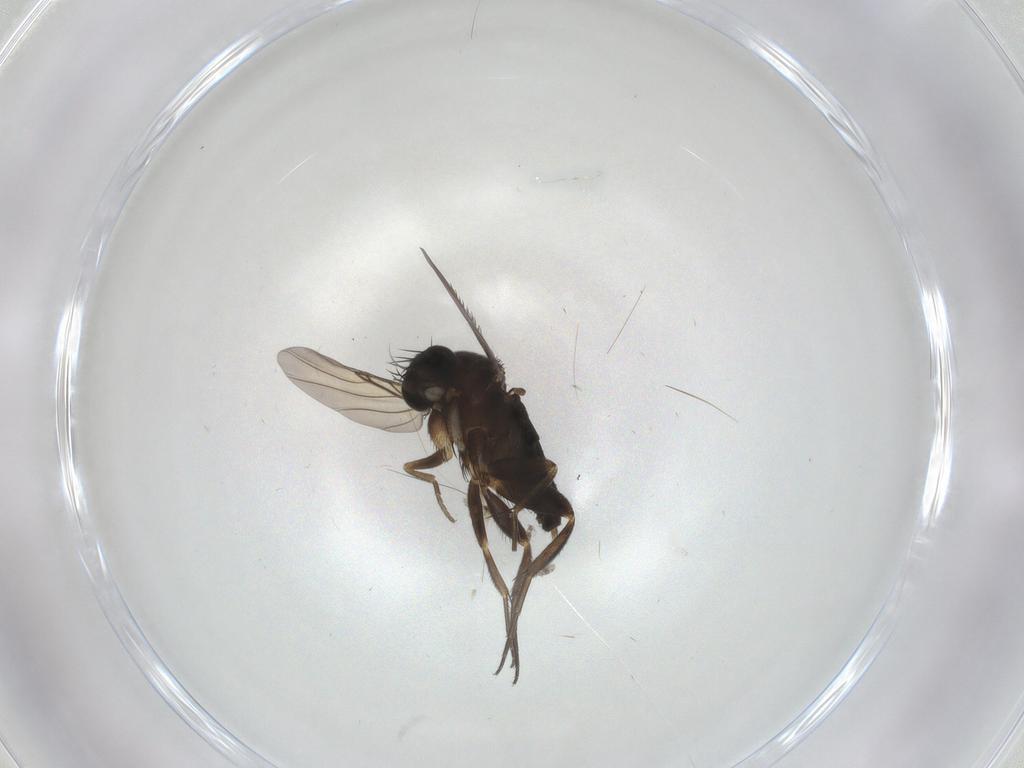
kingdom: Animalia
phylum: Arthropoda
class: Insecta
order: Diptera
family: Phoridae
